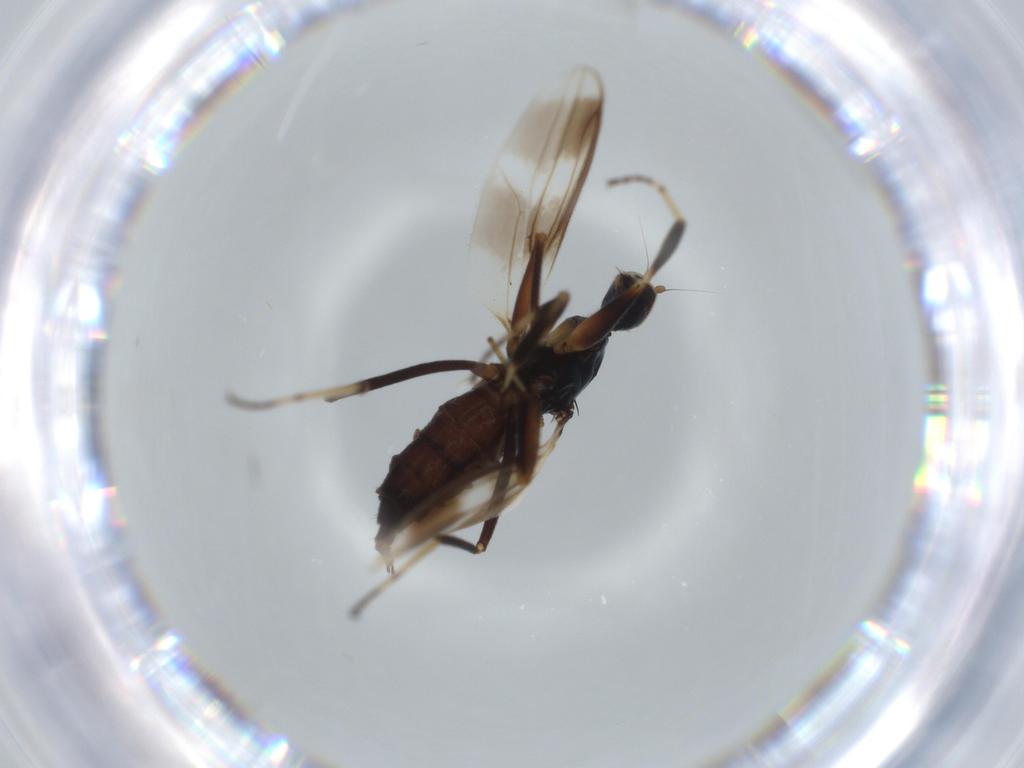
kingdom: Animalia
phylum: Arthropoda
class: Insecta
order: Diptera
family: Hybotidae
